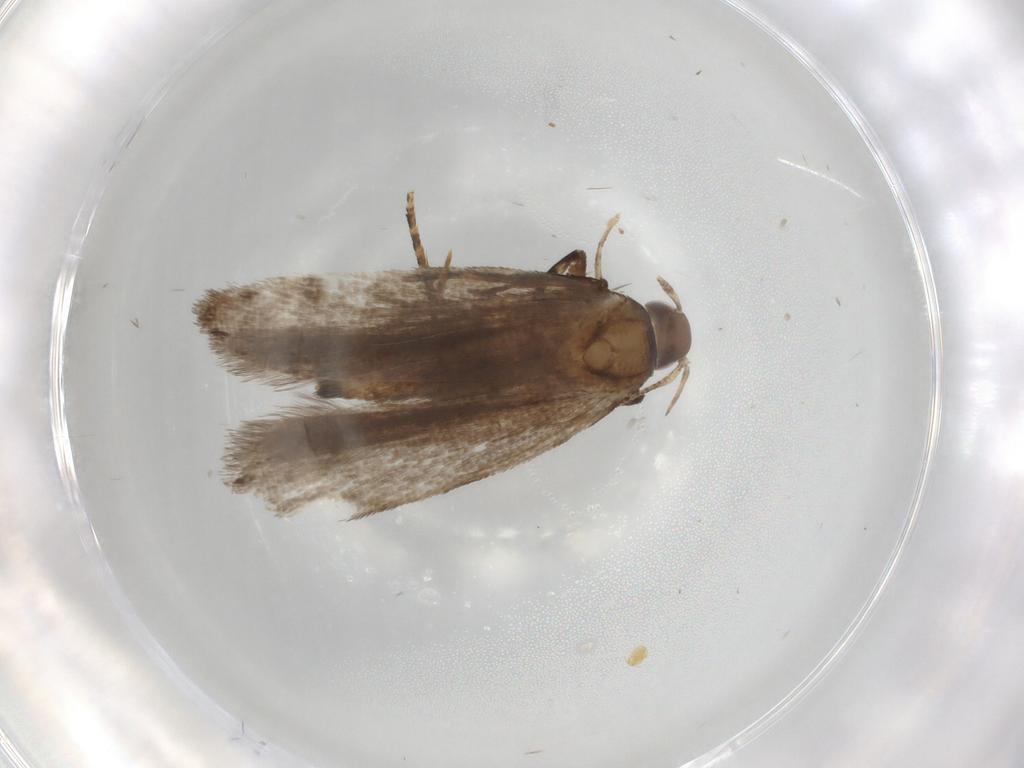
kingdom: Animalia
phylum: Arthropoda
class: Insecta
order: Lepidoptera
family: Gelechiidae
